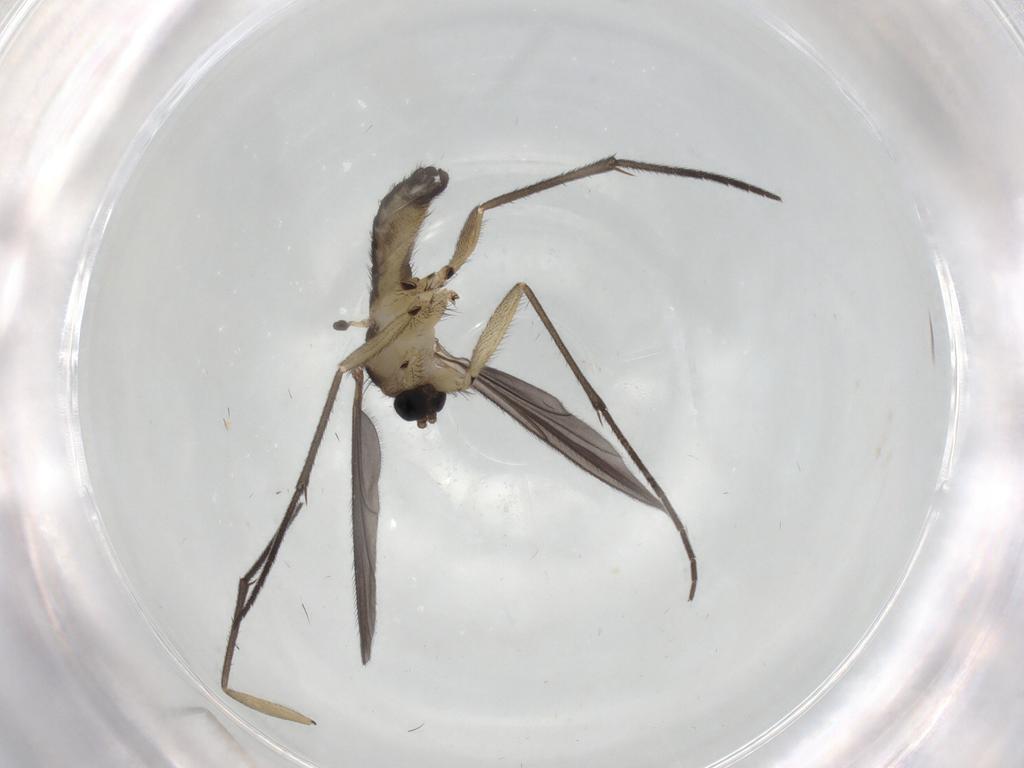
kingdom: Animalia
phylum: Arthropoda
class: Insecta
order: Diptera
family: Sciaridae
